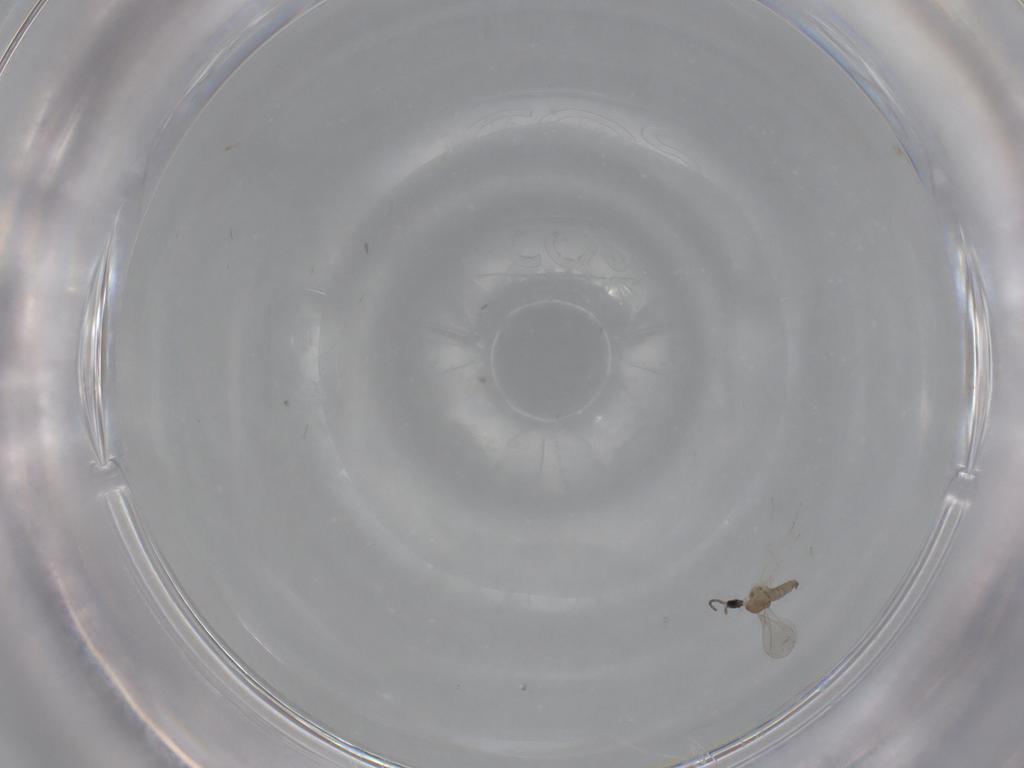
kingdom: Animalia
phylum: Arthropoda
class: Insecta
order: Diptera
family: Cecidomyiidae
